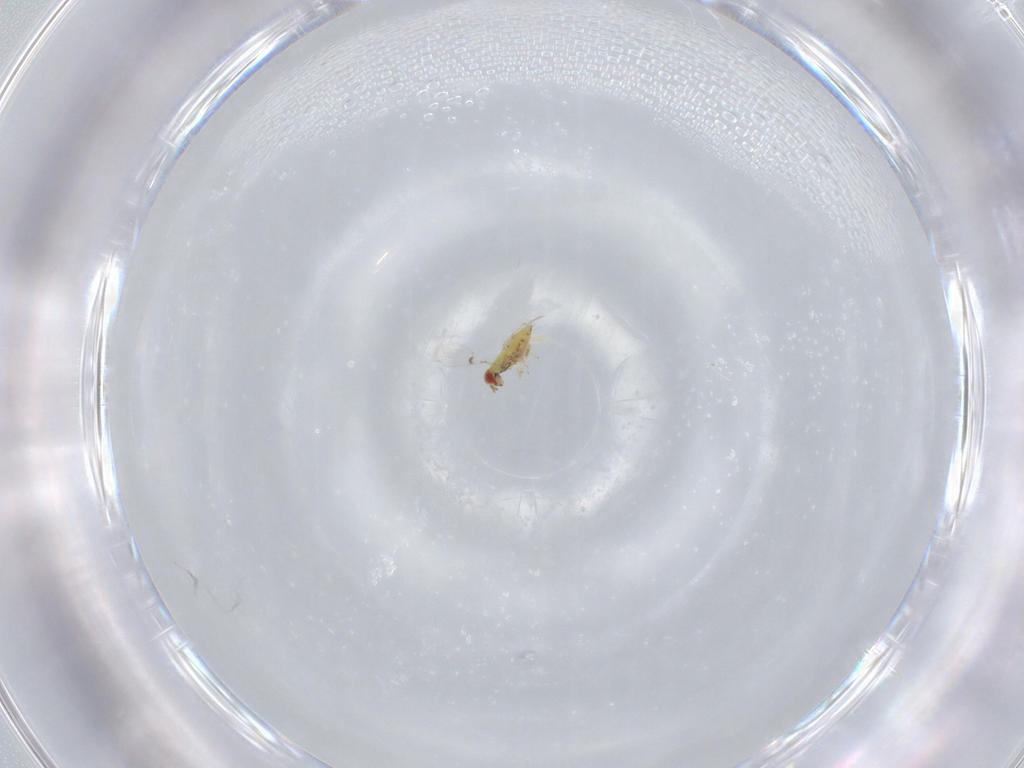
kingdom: Animalia
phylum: Arthropoda
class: Insecta
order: Hymenoptera
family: Trichogrammatidae
